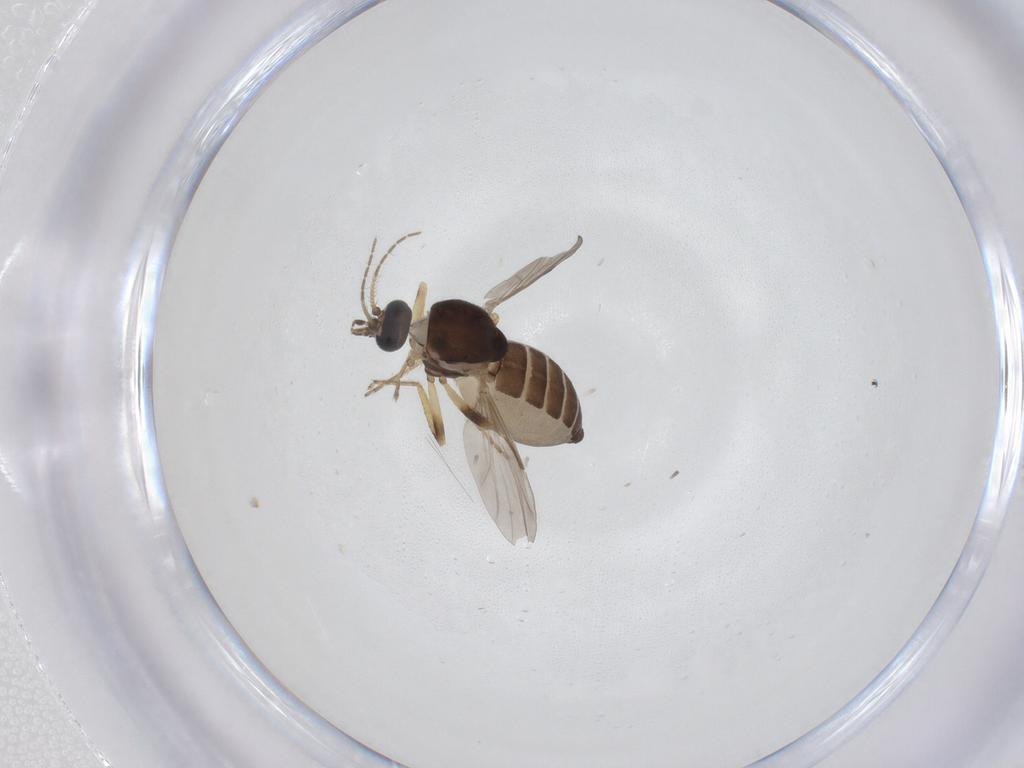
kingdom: Animalia
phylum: Arthropoda
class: Insecta
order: Diptera
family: Ceratopogonidae
